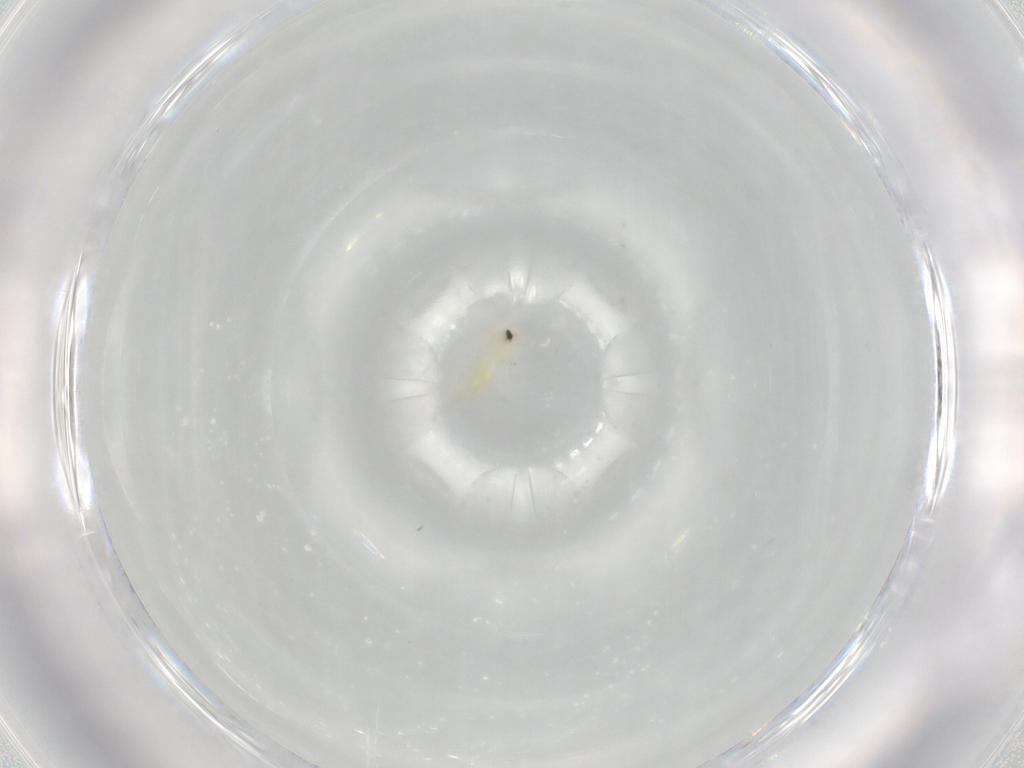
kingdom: Animalia
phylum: Arthropoda
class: Insecta
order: Hemiptera
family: Aleyrodidae
